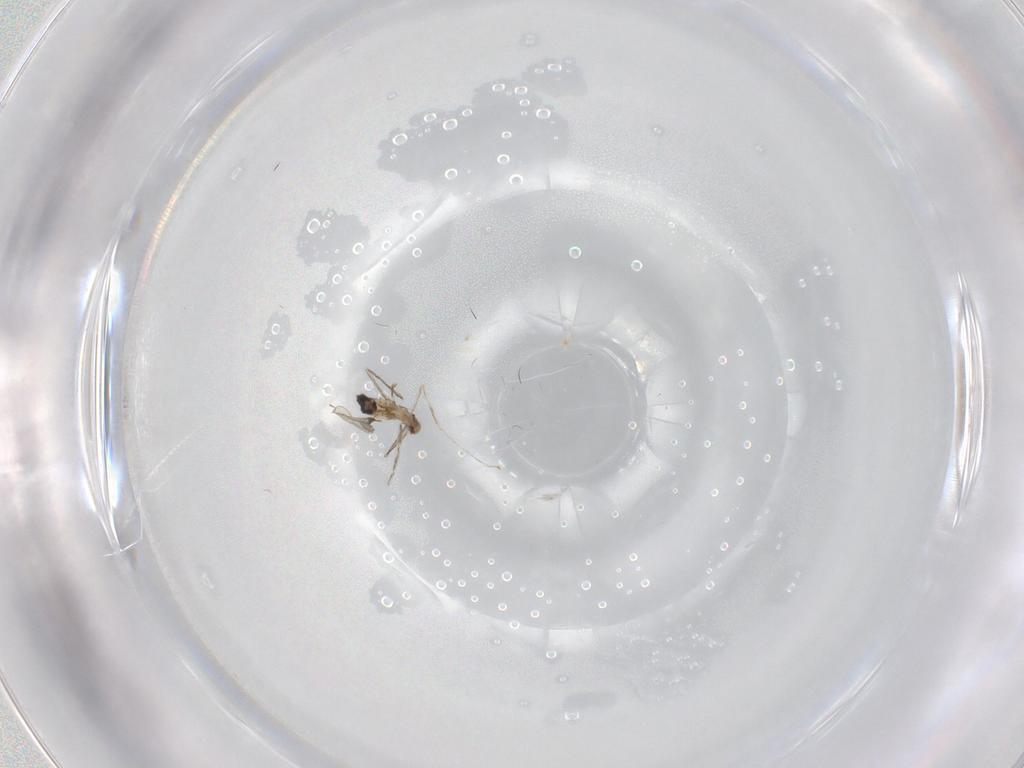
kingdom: Animalia
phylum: Arthropoda
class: Insecta
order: Diptera
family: Cecidomyiidae
